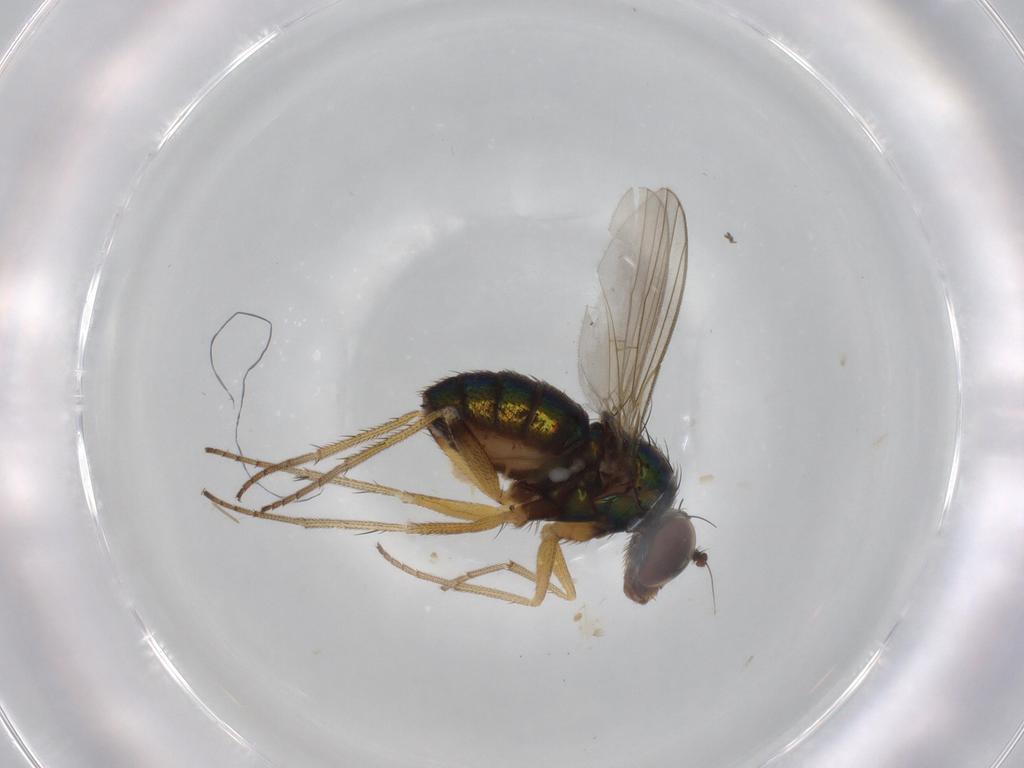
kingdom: Animalia
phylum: Arthropoda
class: Insecta
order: Diptera
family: Dolichopodidae
